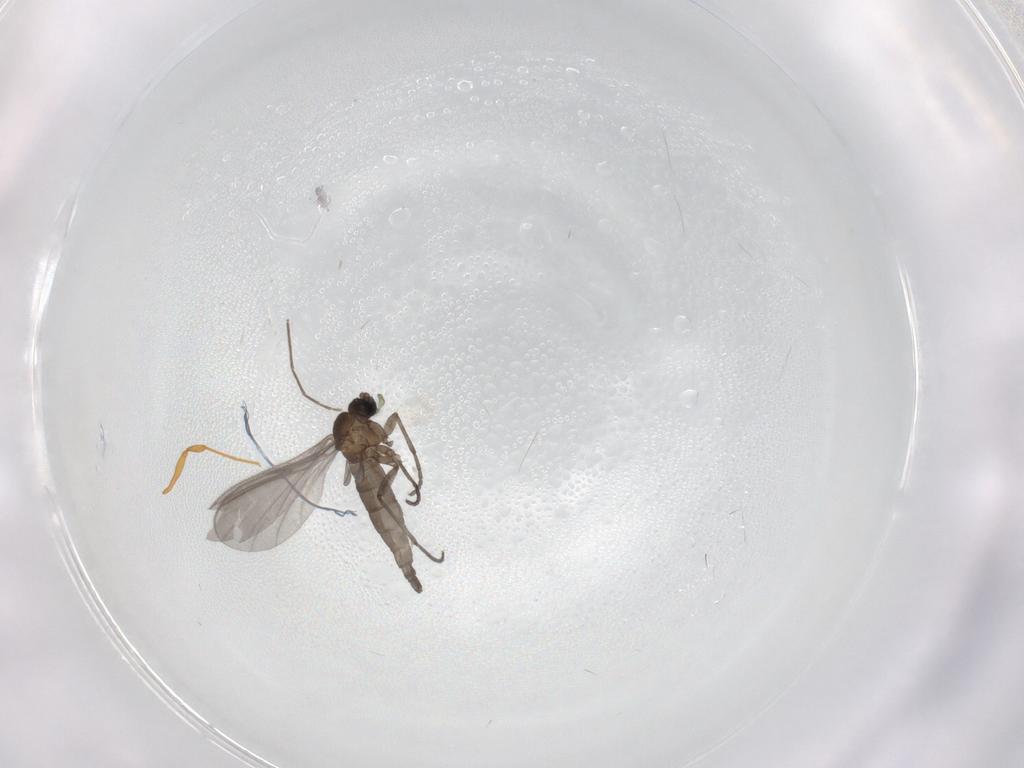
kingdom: Animalia
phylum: Arthropoda
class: Insecta
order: Diptera
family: Sciaridae
